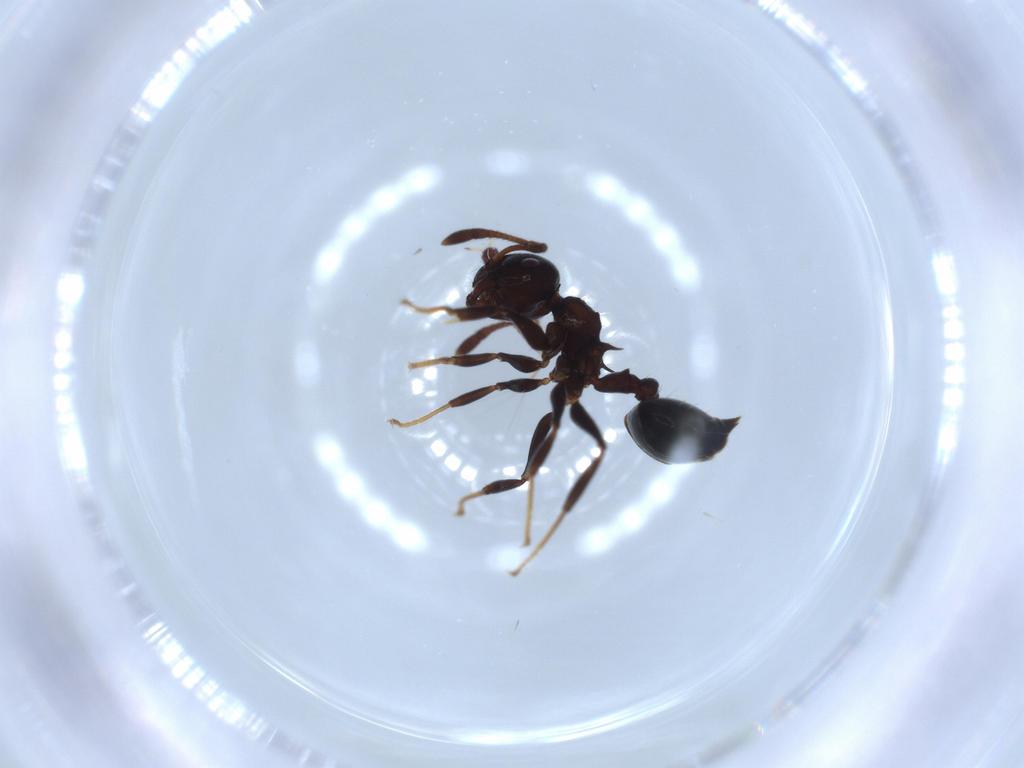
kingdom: Animalia
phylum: Arthropoda
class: Insecta
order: Hymenoptera
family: Formicidae
